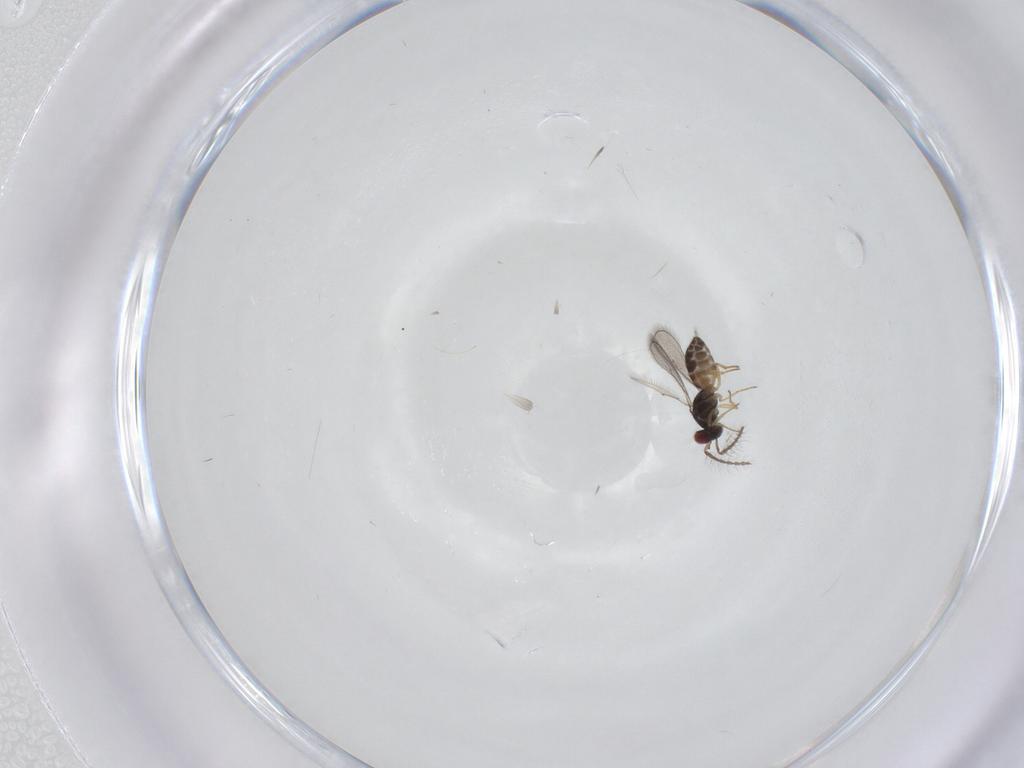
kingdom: Animalia
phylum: Arthropoda
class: Insecta
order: Hymenoptera
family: Eulophidae
